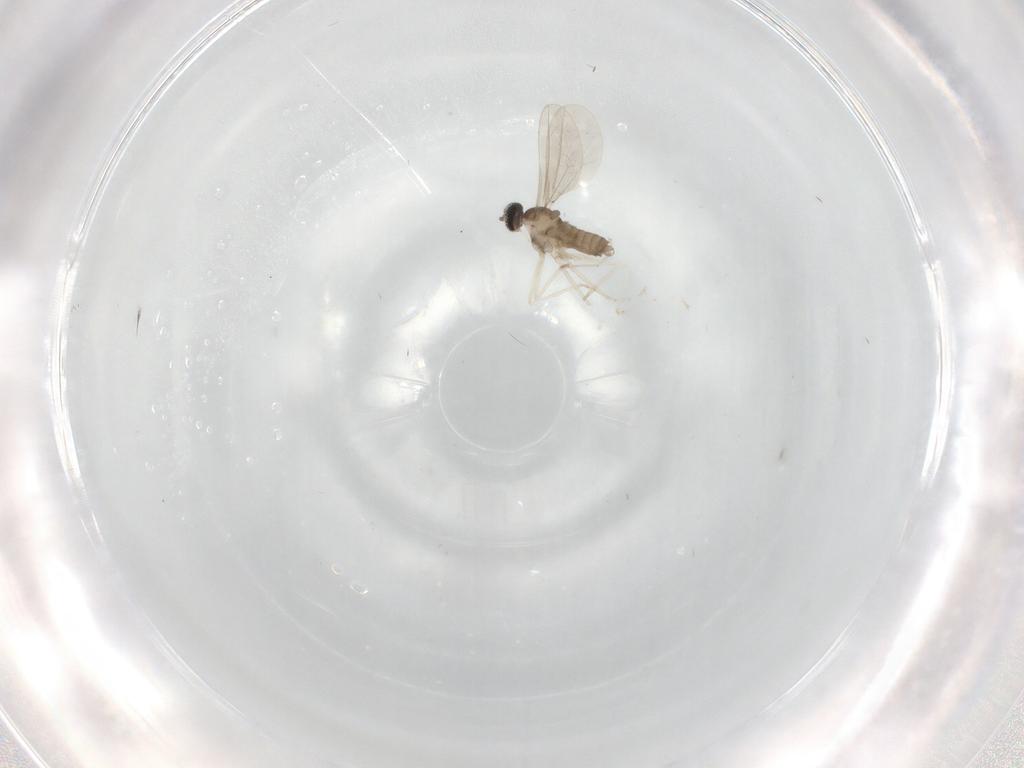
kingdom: Animalia
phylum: Arthropoda
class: Insecta
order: Diptera
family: Cecidomyiidae
